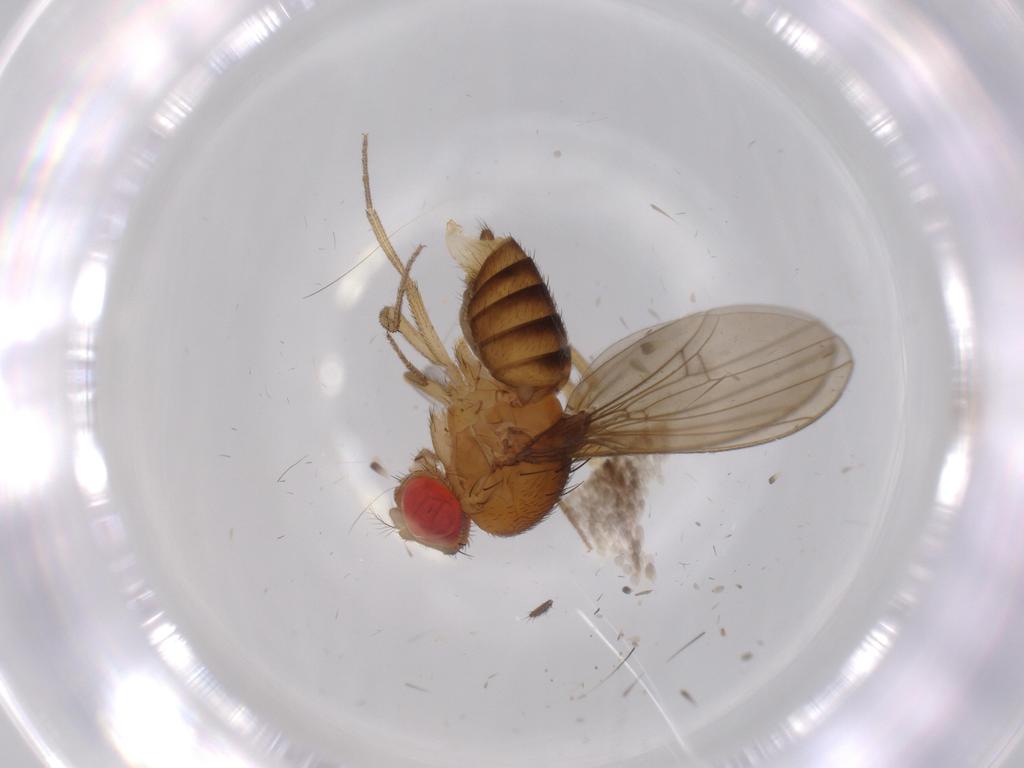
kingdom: Animalia
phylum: Arthropoda
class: Insecta
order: Diptera
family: Drosophilidae
